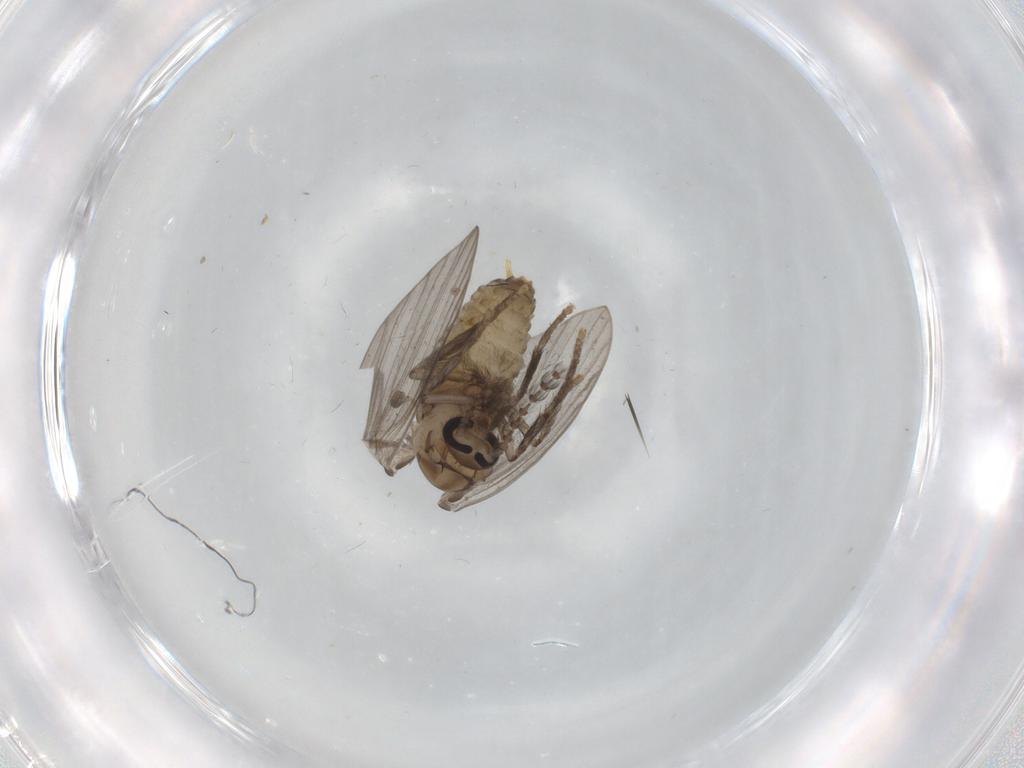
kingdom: Animalia
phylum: Arthropoda
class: Insecta
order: Diptera
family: Psychodidae
